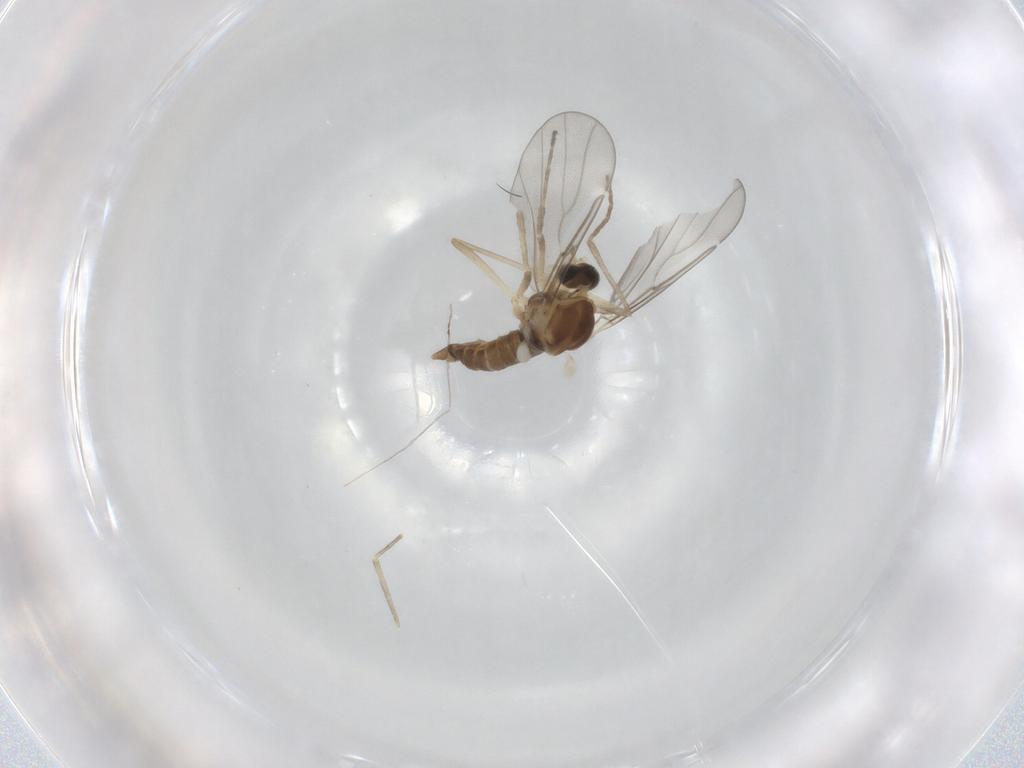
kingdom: Animalia
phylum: Arthropoda
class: Insecta
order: Diptera
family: Cecidomyiidae
